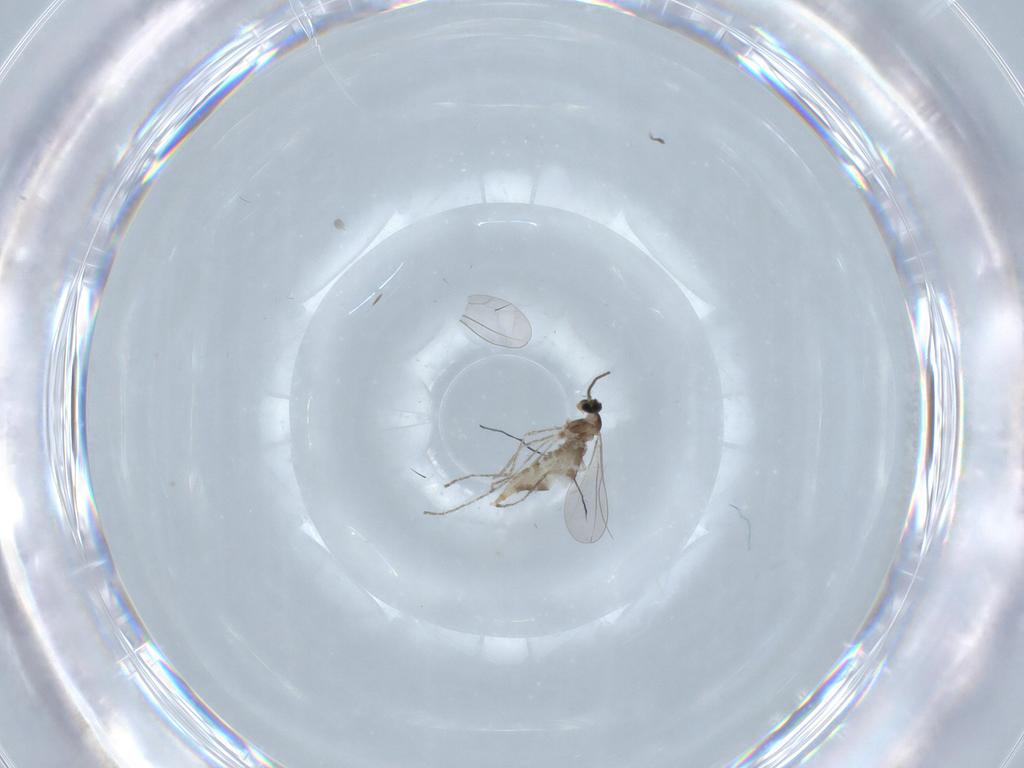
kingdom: Animalia
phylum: Arthropoda
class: Insecta
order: Diptera
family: Cecidomyiidae
